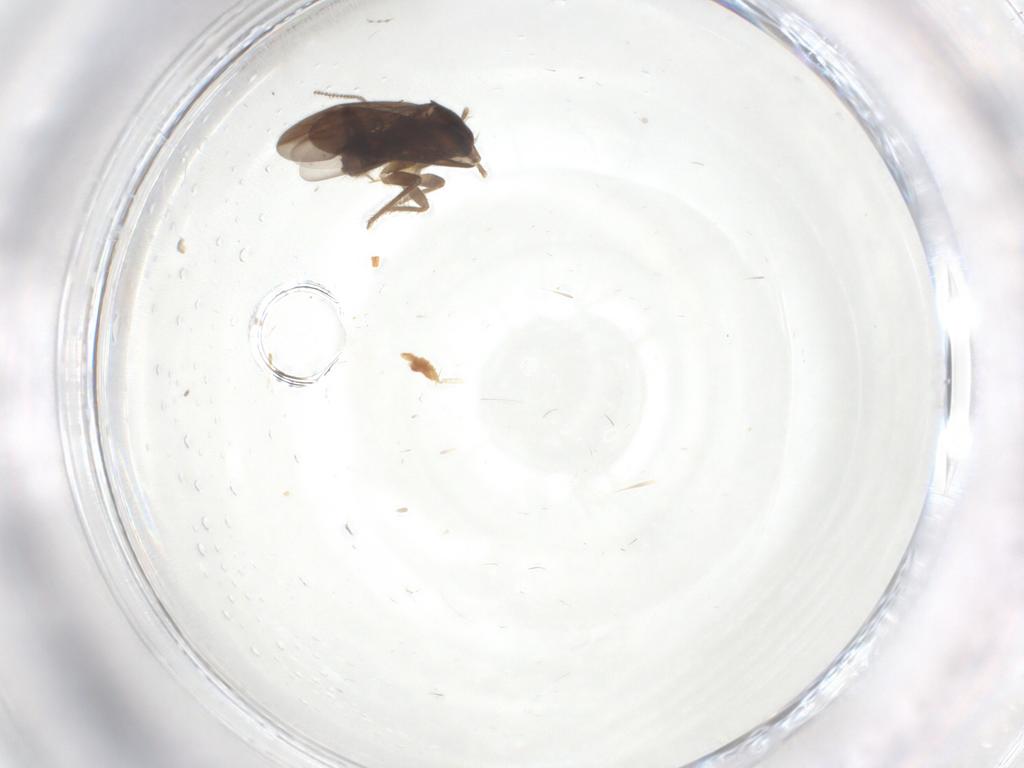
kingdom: Animalia
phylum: Arthropoda
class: Insecta
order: Hemiptera
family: Ceratocombidae
